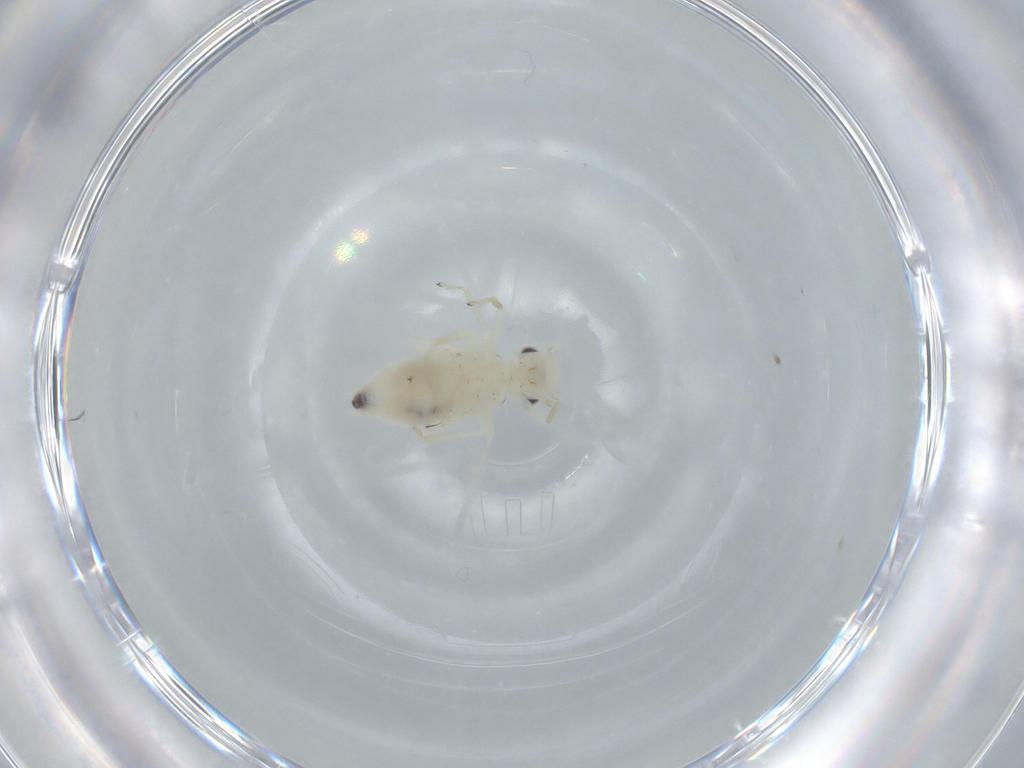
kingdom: Animalia
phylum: Arthropoda
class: Insecta
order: Psocodea
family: Caeciliusidae
